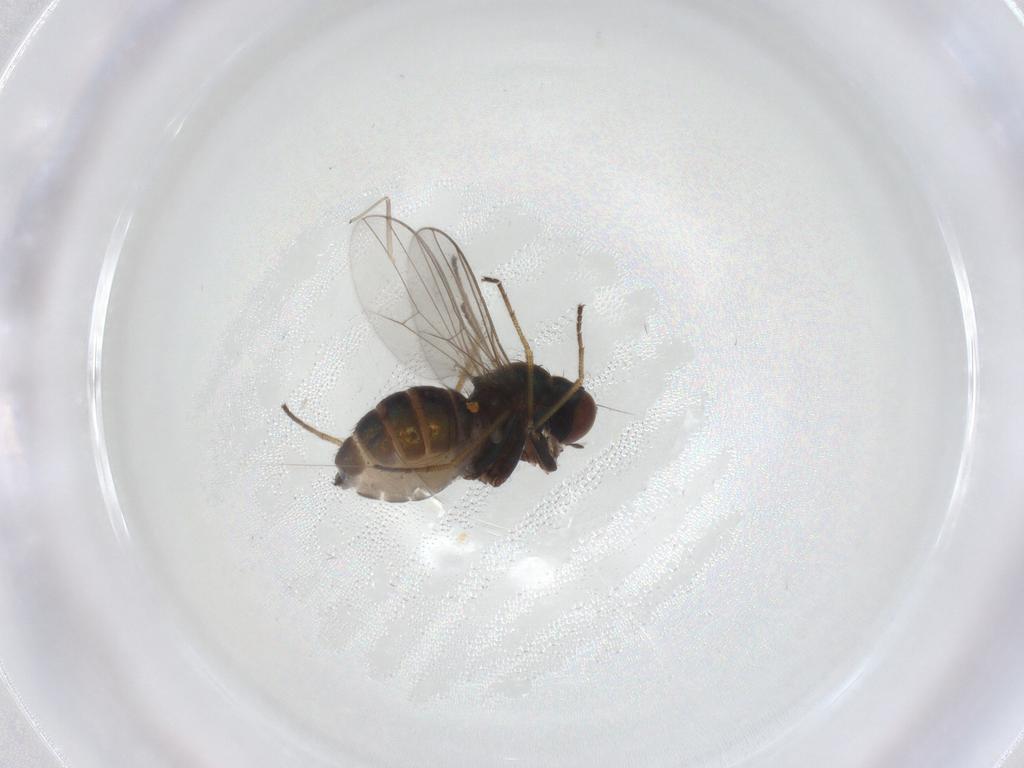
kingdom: Animalia
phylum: Arthropoda
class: Insecta
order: Diptera
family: Dolichopodidae
